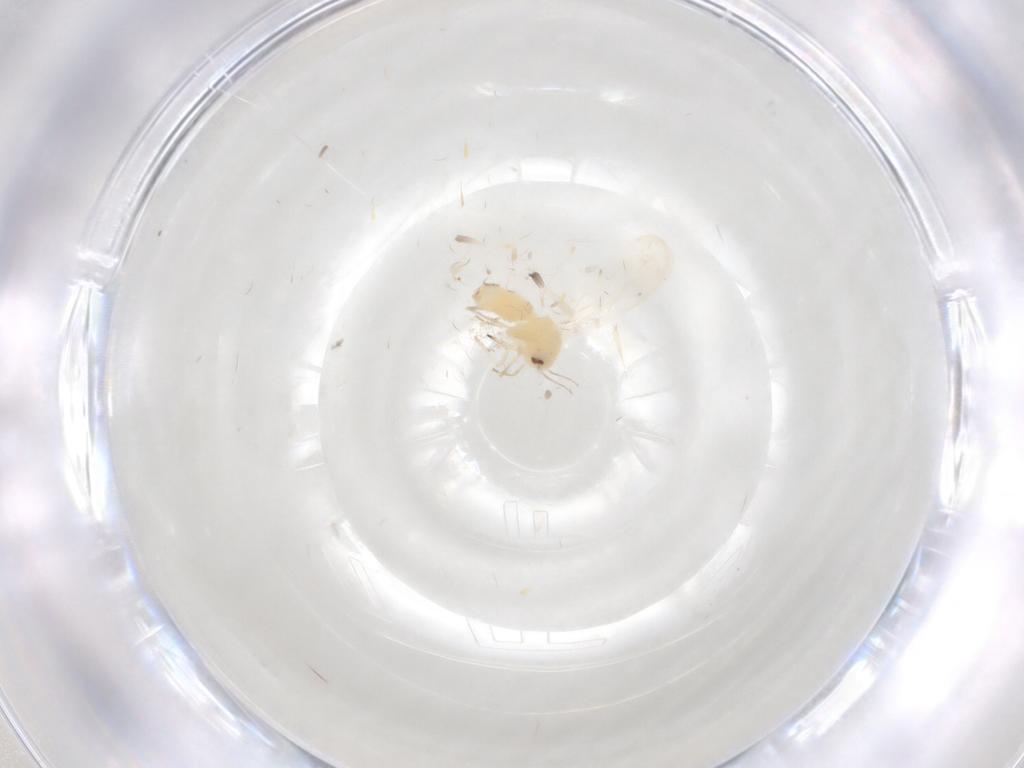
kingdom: Animalia
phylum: Arthropoda
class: Insecta
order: Hemiptera
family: Aleyrodidae
